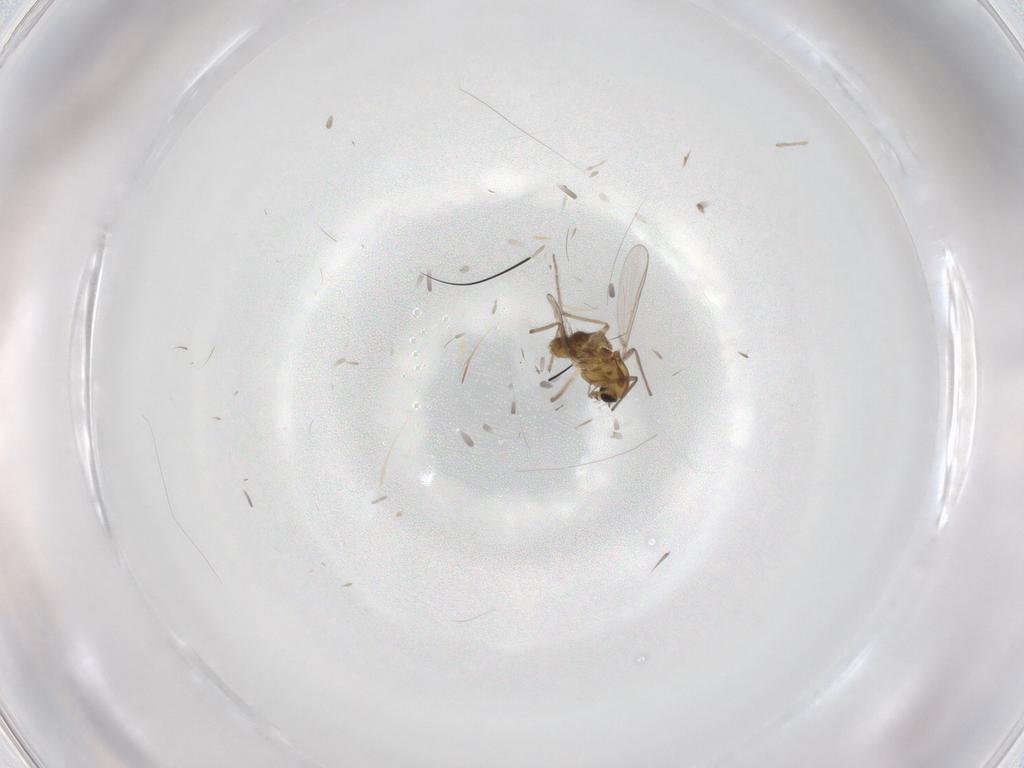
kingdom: Animalia
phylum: Arthropoda
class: Insecta
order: Diptera
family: Chironomidae
